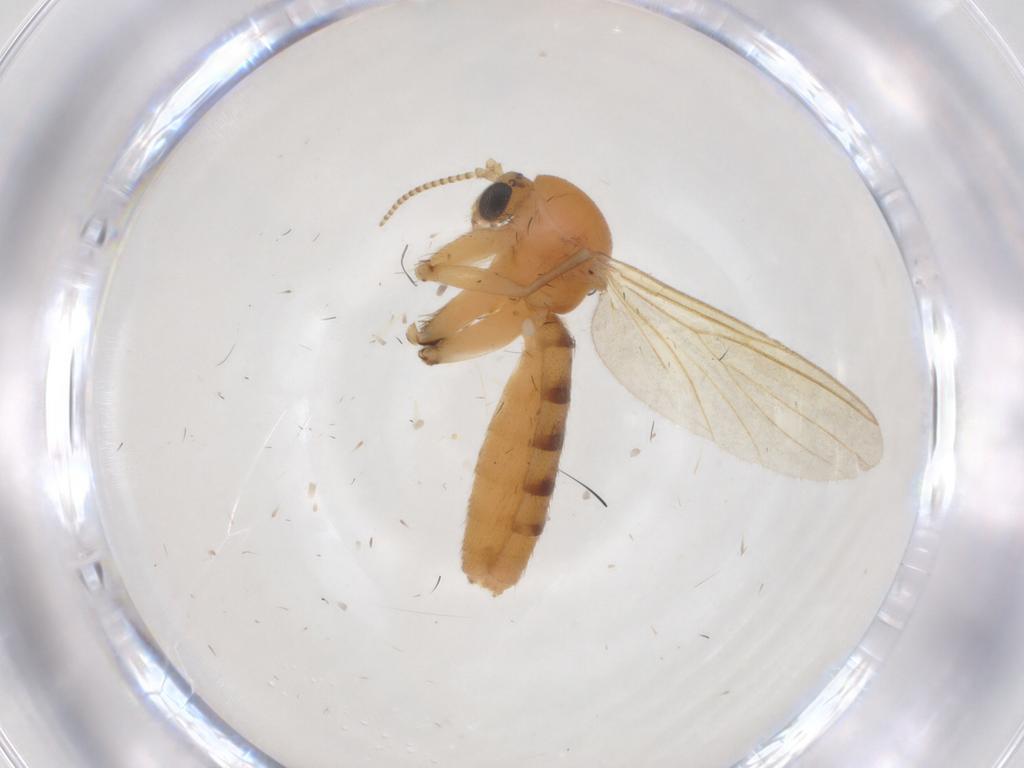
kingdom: Animalia
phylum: Arthropoda
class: Insecta
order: Diptera
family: Mycetophilidae
